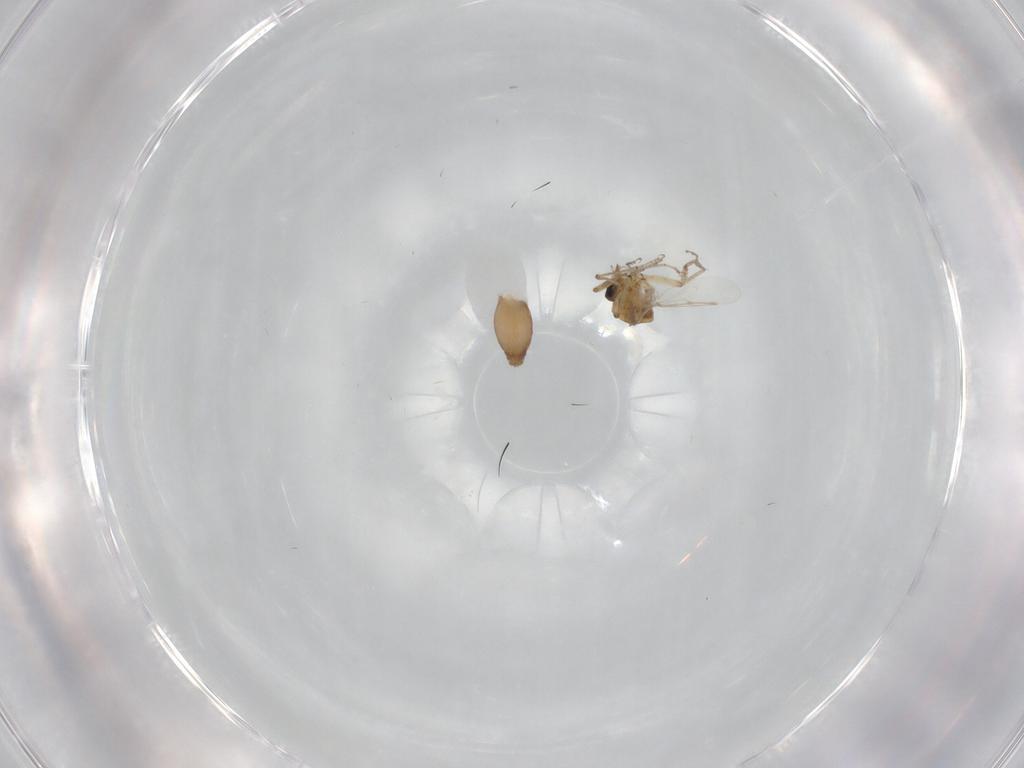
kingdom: Animalia
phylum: Arthropoda
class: Insecta
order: Diptera
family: Ceratopogonidae
